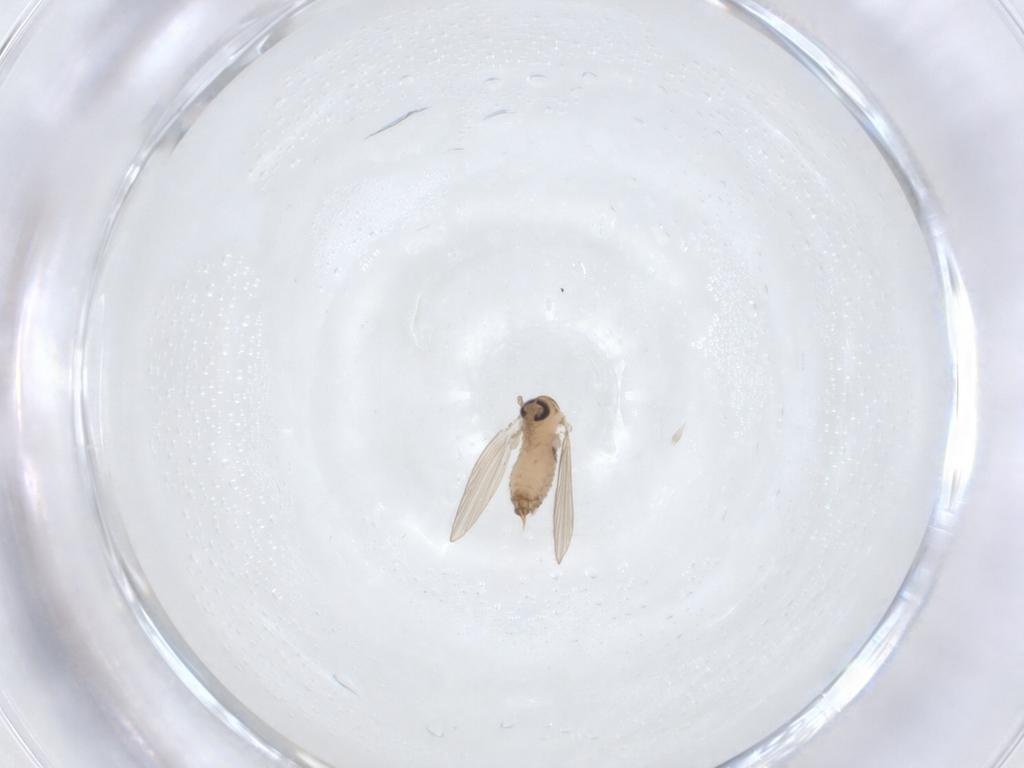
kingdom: Animalia
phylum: Arthropoda
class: Insecta
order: Diptera
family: Psychodidae
